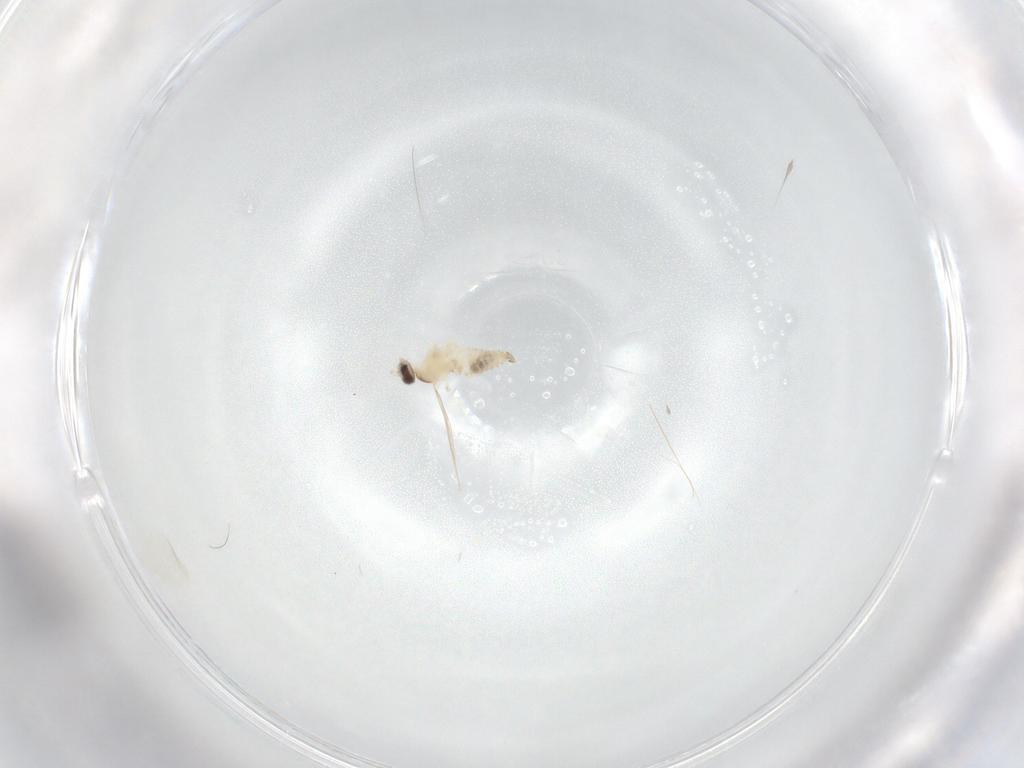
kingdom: Animalia
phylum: Arthropoda
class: Insecta
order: Diptera
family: Cecidomyiidae
